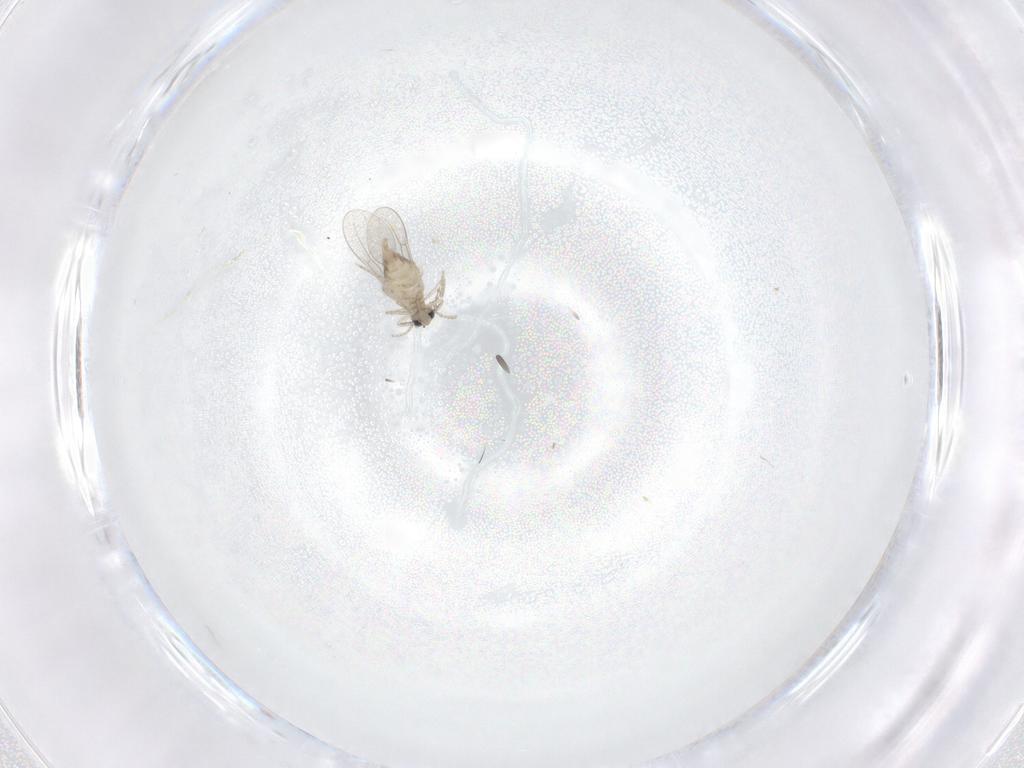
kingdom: Animalia
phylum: Arthropoda
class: Insecta
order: Diptera
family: Cecidomyiidae
